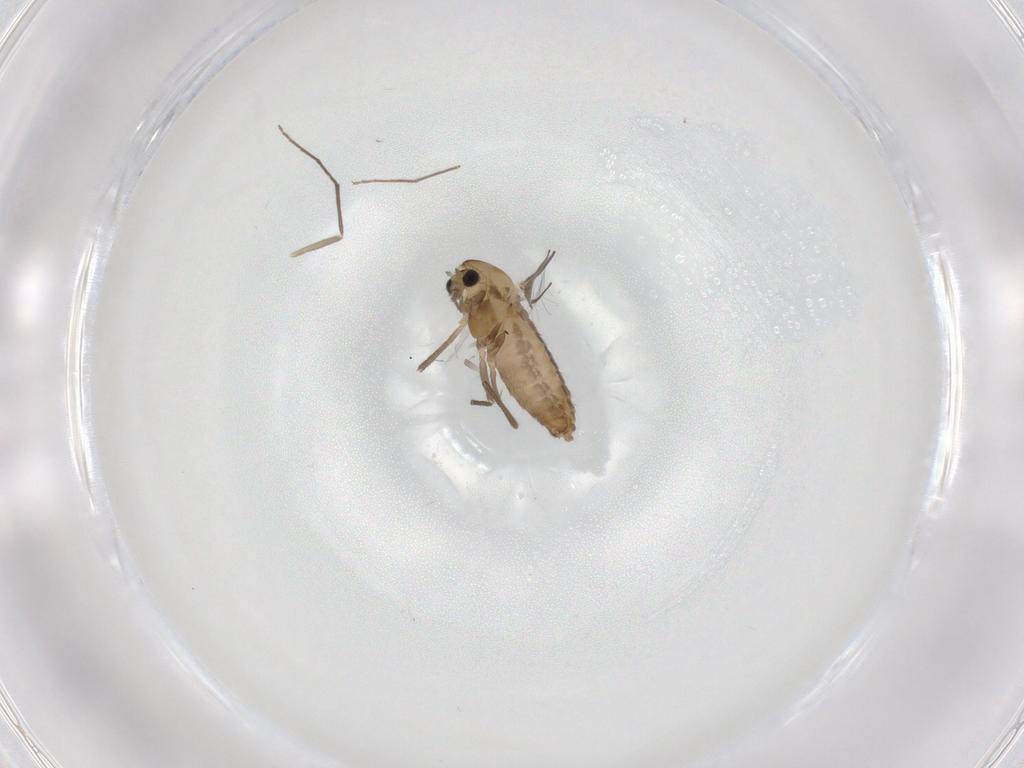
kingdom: Animalia
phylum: Arthropoda
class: Insecta
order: Diptera
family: Chironomidae
